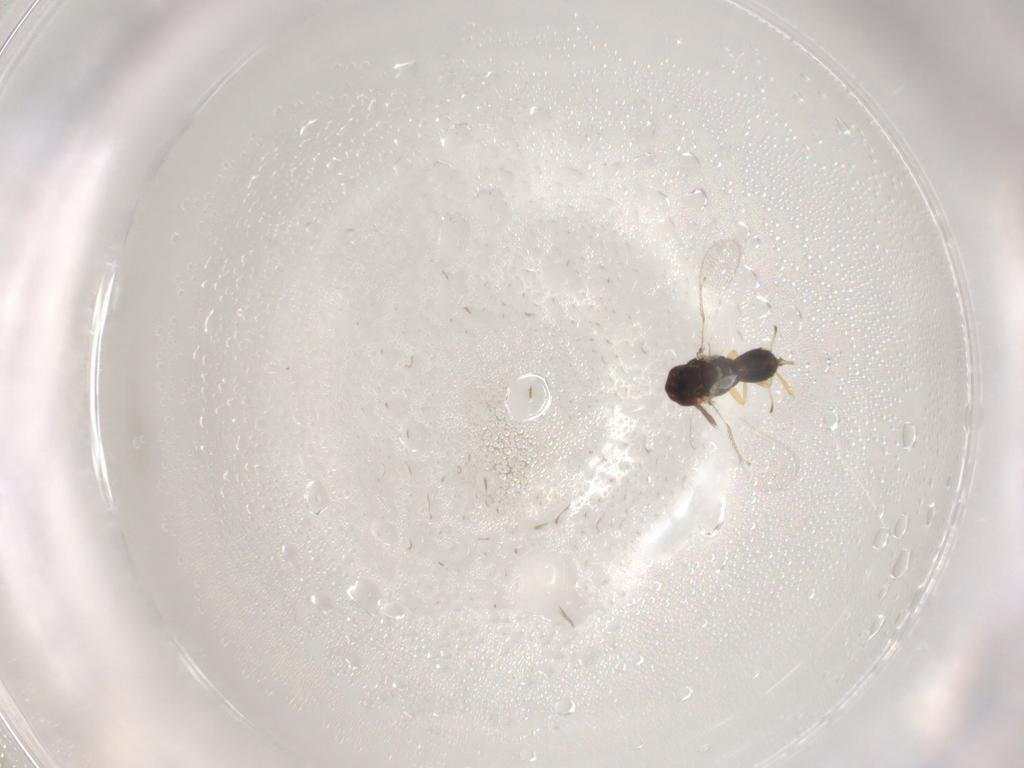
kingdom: Animalia
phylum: Arthropoda
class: Insecta
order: Hymenoptera
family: Eulophidae
